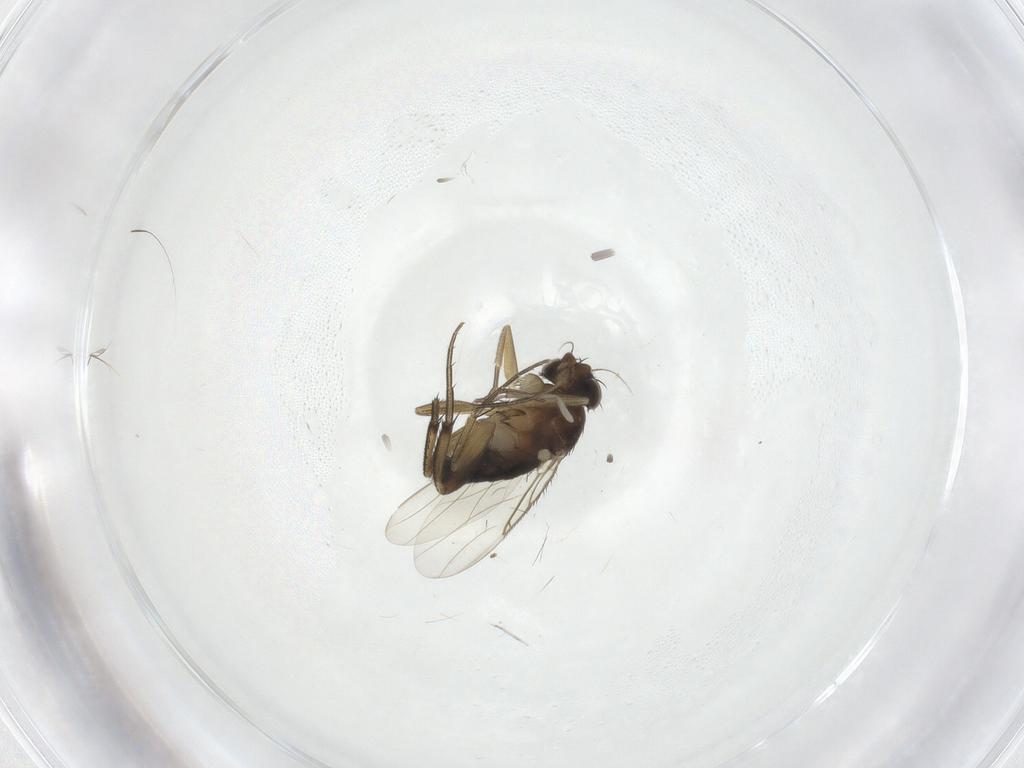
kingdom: Animalia
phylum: Arthropoda
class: Insecta
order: Diptera
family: Phoridae
